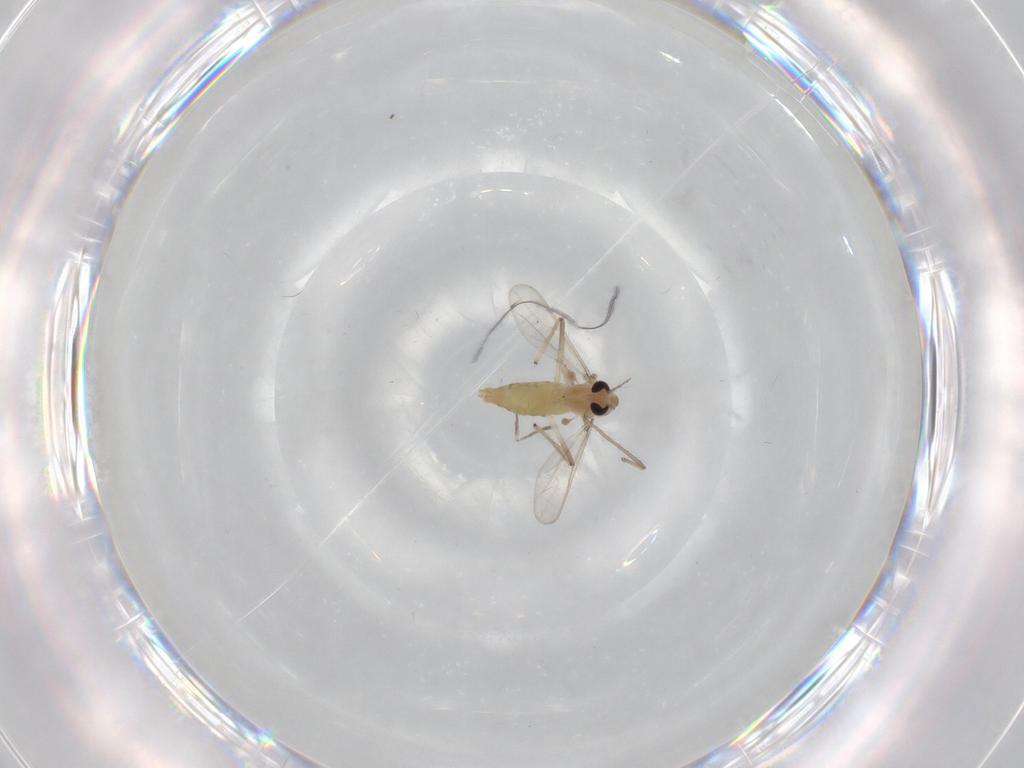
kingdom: Animalia
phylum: Arthropoda
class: Insecta
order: Diptera
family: Chironomidae
